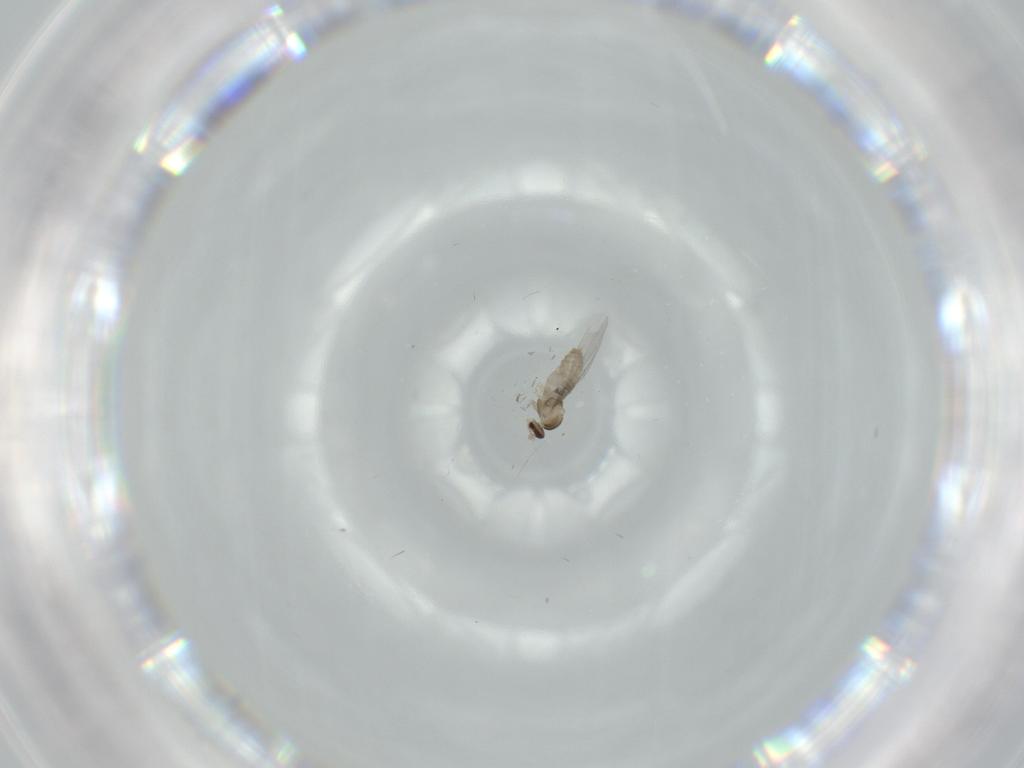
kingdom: Animalia
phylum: Arthropoda
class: Insecta
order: Diptera
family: Cecidomyiidae
